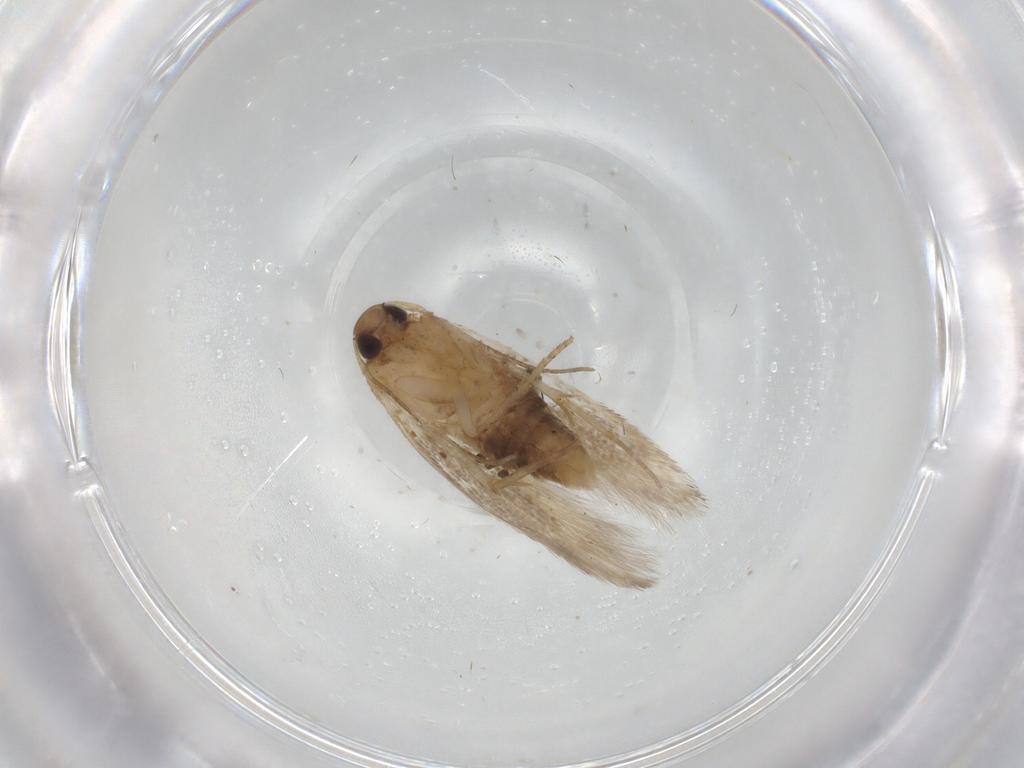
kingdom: Animalia
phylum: Arthropoda
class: Insecta
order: Lepidoptera
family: Cosmopterigidae
